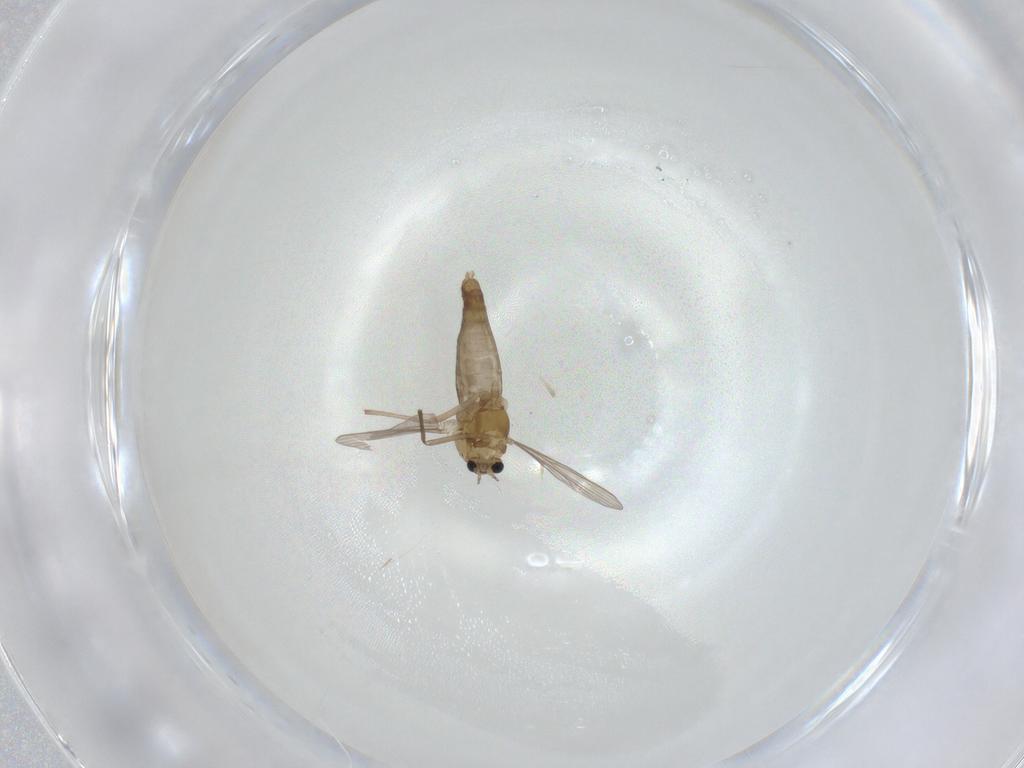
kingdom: Animalia
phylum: Arthropoda
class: Insecta
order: Diptera
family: Chironomidae
